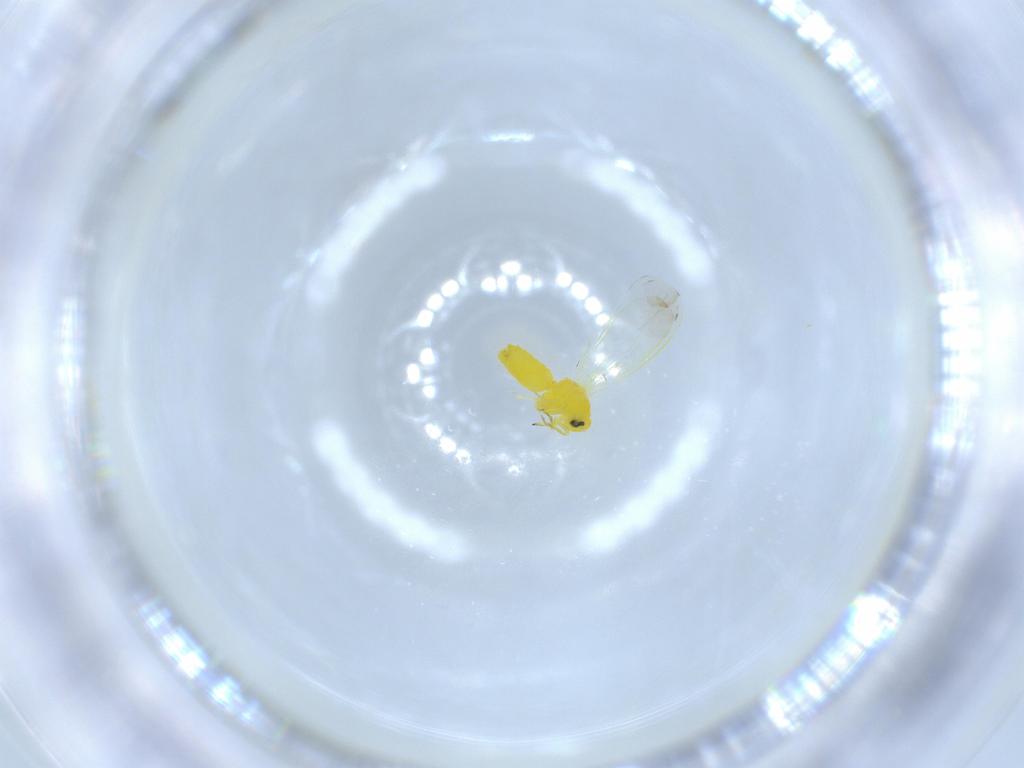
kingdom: Animalia
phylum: Arthropoda
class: Insecta
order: Hemiptera
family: Aleyrodidae
